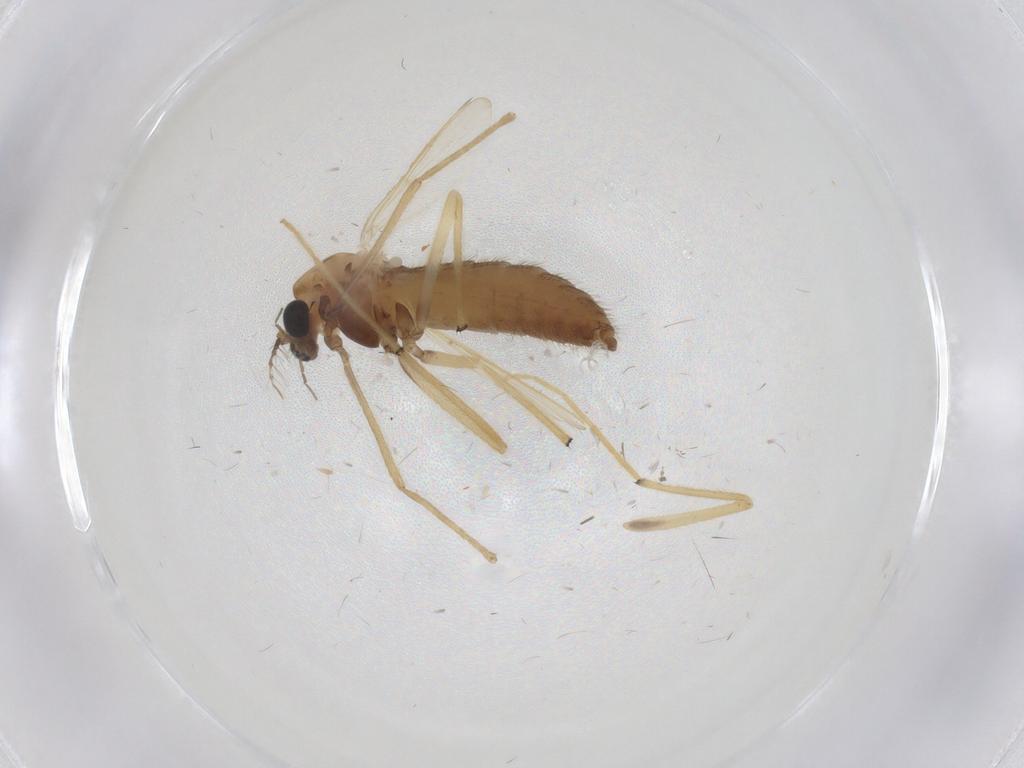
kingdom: Animalia
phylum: Arthropoda
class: Insecta
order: Diptera
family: Chironomidae
